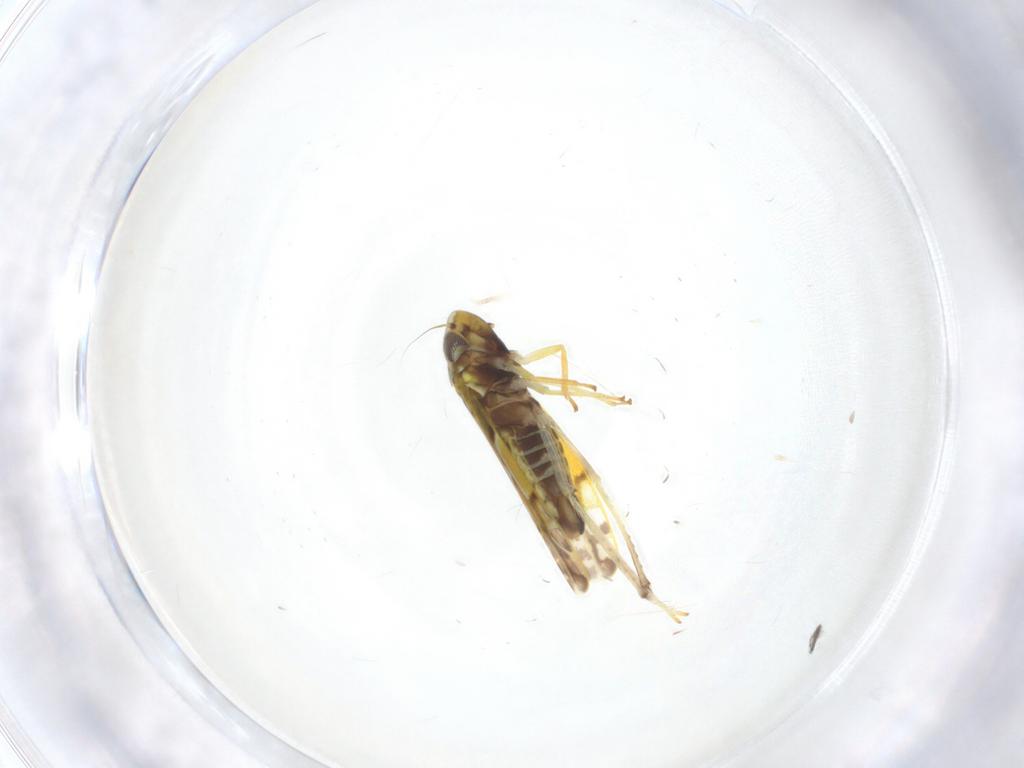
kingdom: Animalia
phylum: Arthropoda
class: Insecta
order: Hemiptera
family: Cicadellidae
